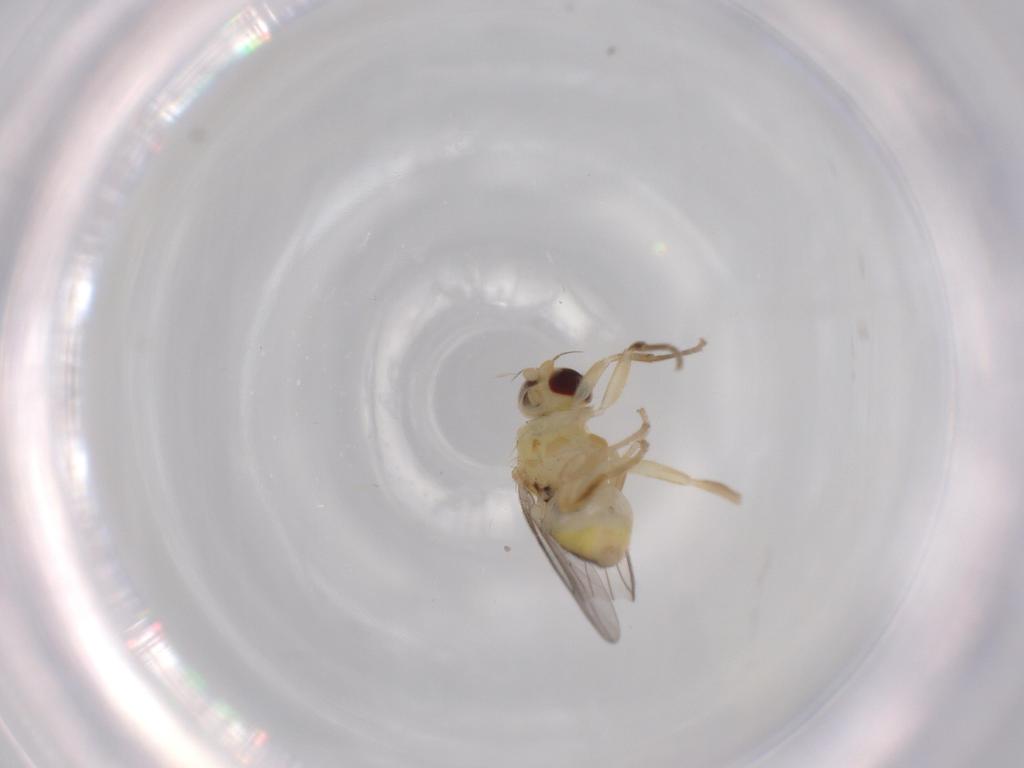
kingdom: Animalia
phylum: Arthropoda
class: Insecta
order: Diptera
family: Chloropidae
